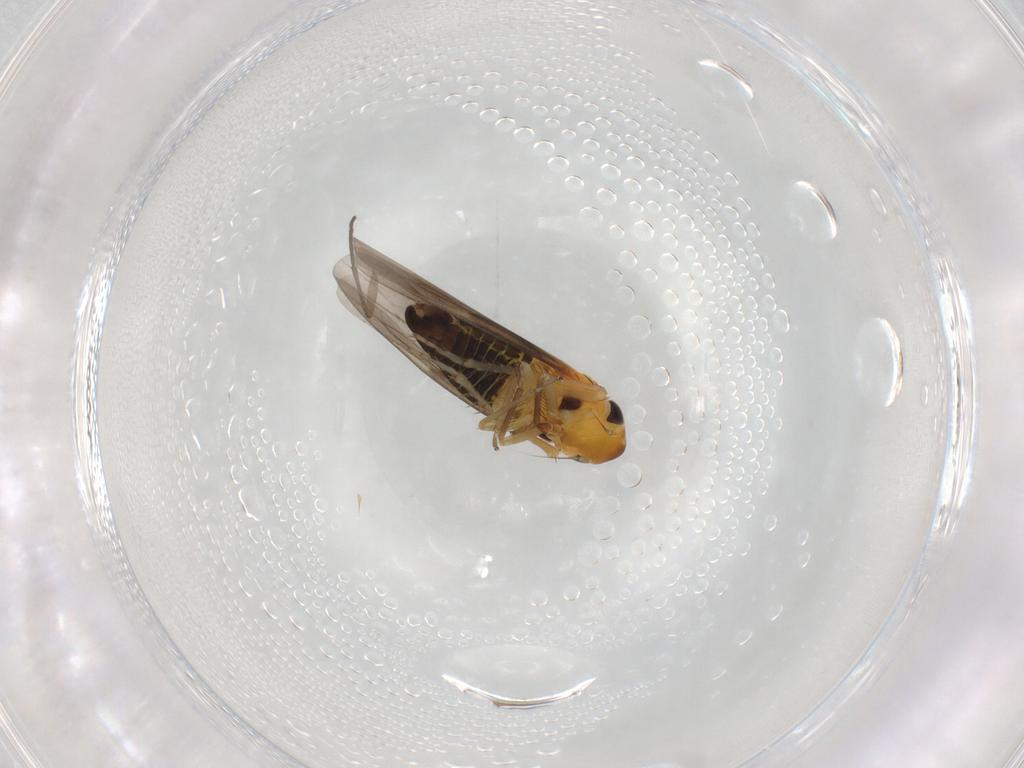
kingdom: Animalia
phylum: Arthropoda
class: Insecta
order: Hemiptera
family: Cicadellidae
